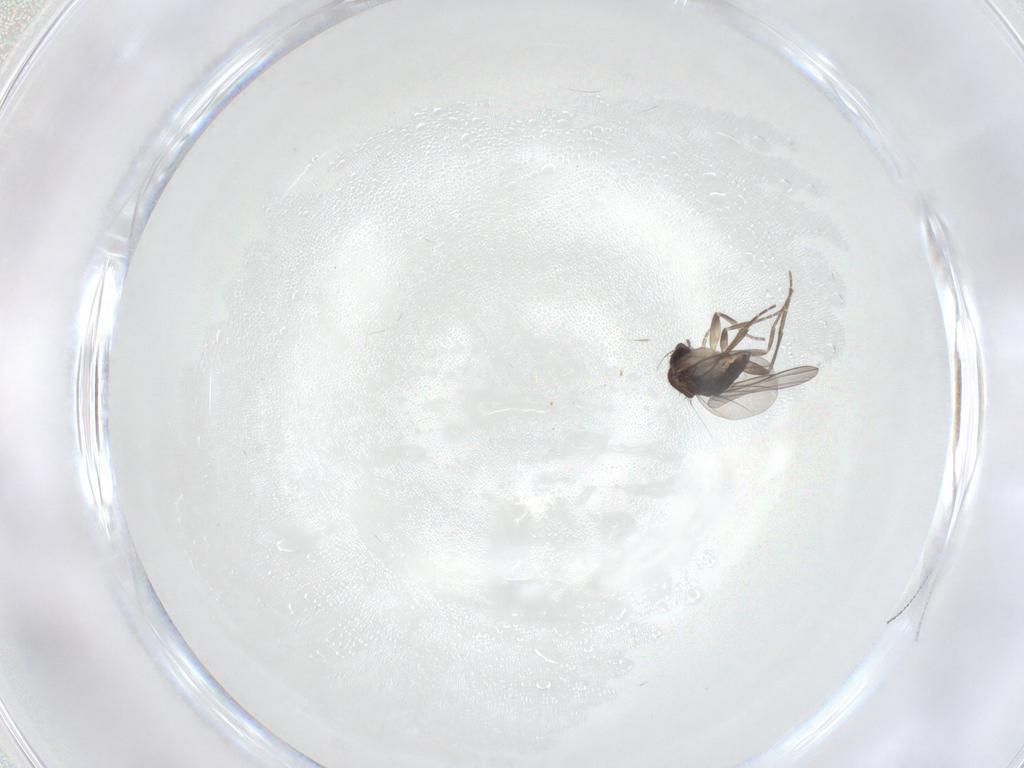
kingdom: Animalia
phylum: Arthropoda
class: Insecta
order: Diptera
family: Cecidomyiidae
